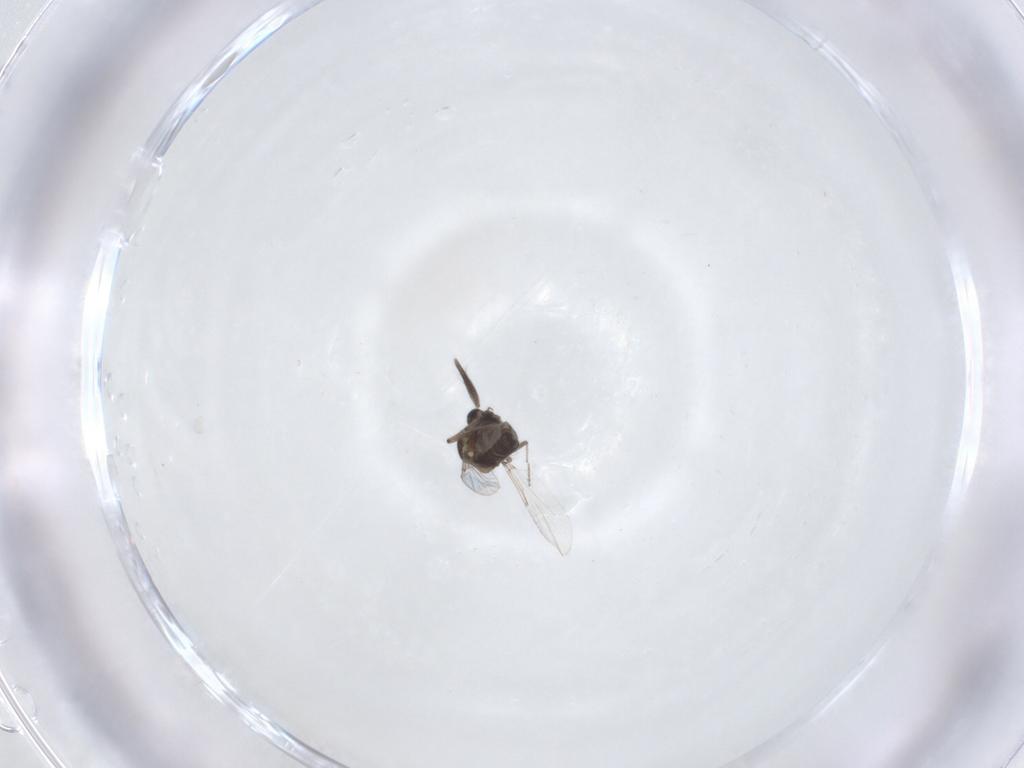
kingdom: Animalia
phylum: Arthropoda
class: Insecta
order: Diptera
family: Ceratopogonidae
